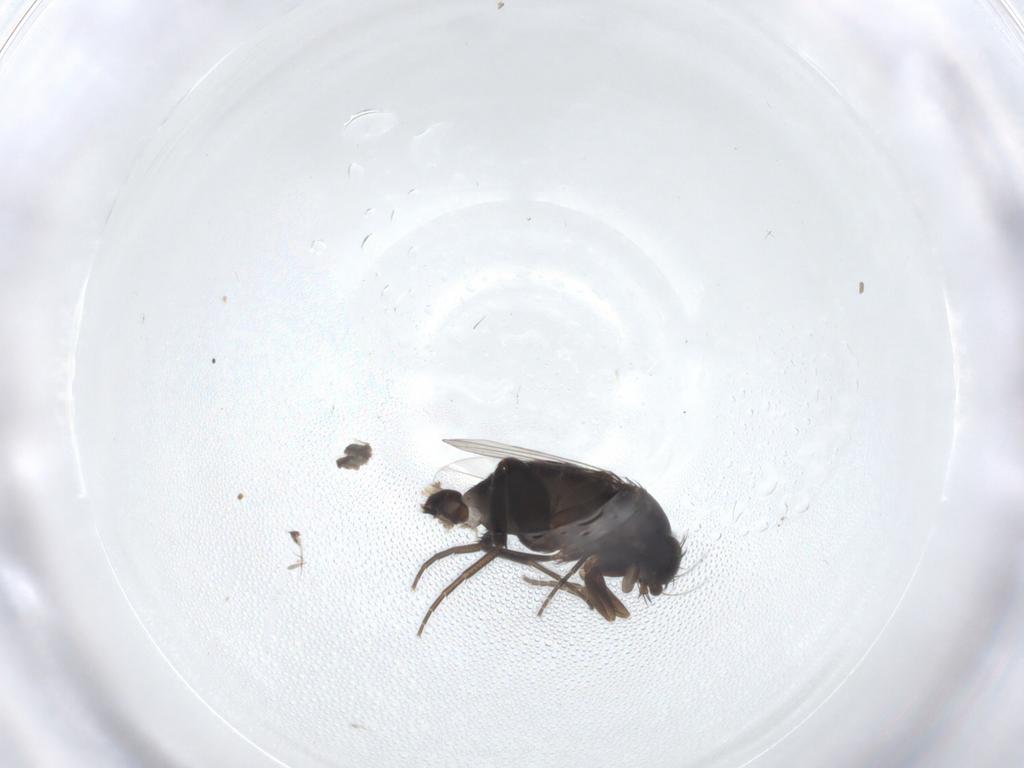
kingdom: Animalia
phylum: Arthropoda
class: Insecta
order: Diptera
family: Phoridae
